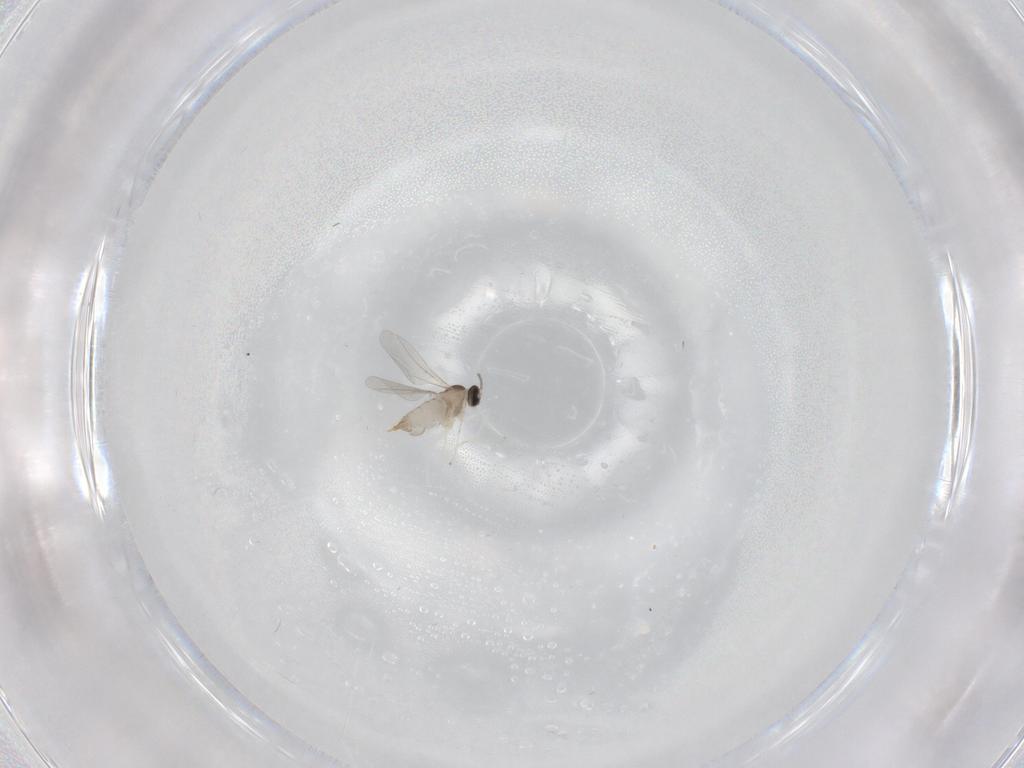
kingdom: Animalia
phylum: Arthropoda
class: Insecta
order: Diptera
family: Cecidomyiidae
